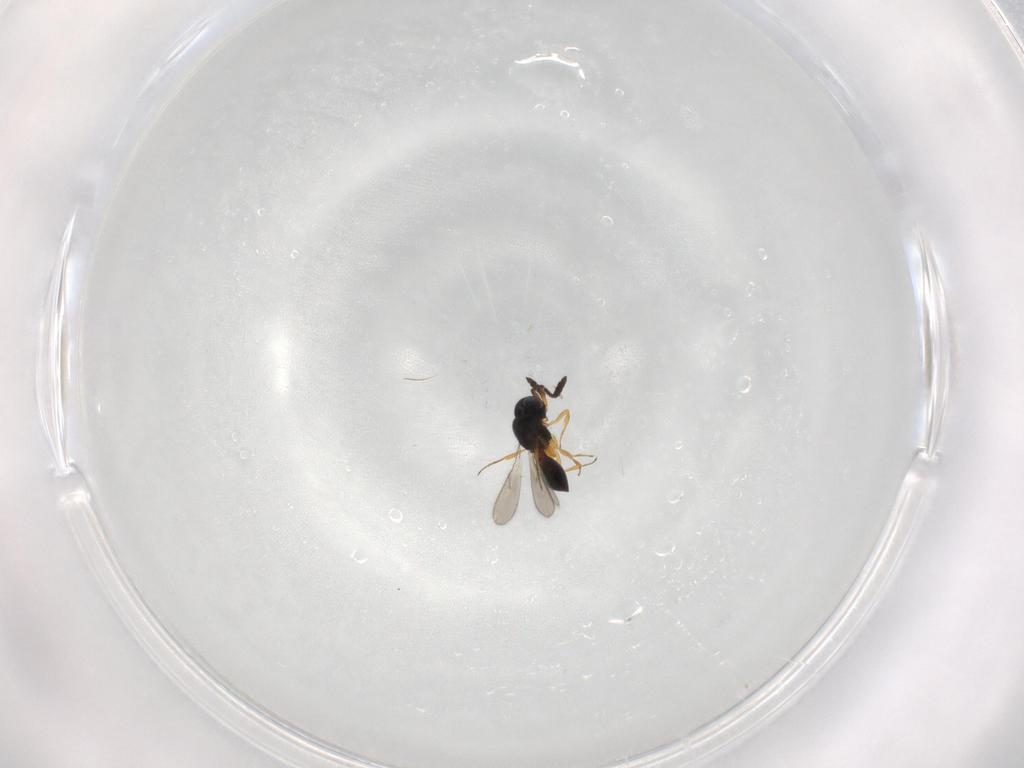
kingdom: Animalia
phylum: Arthropoda
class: Insecta
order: Hymenoptera
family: Scelionidae
